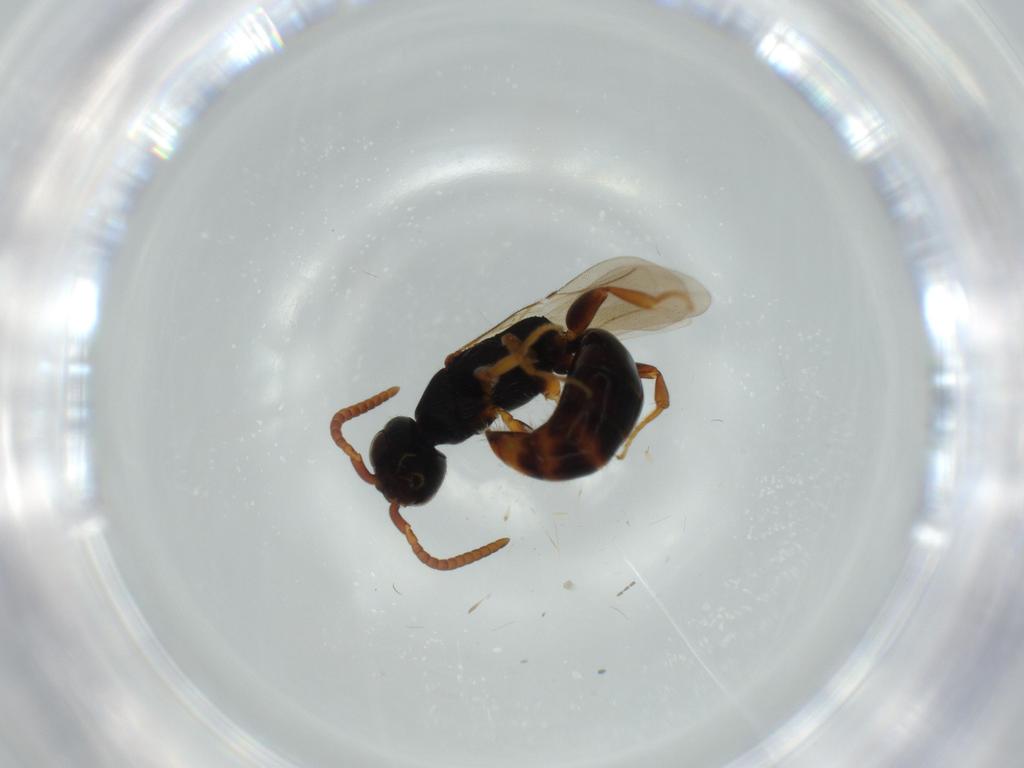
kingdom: Animalia
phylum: Arthropoda
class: Insecta
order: Hymenoptera
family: Bethylidae
